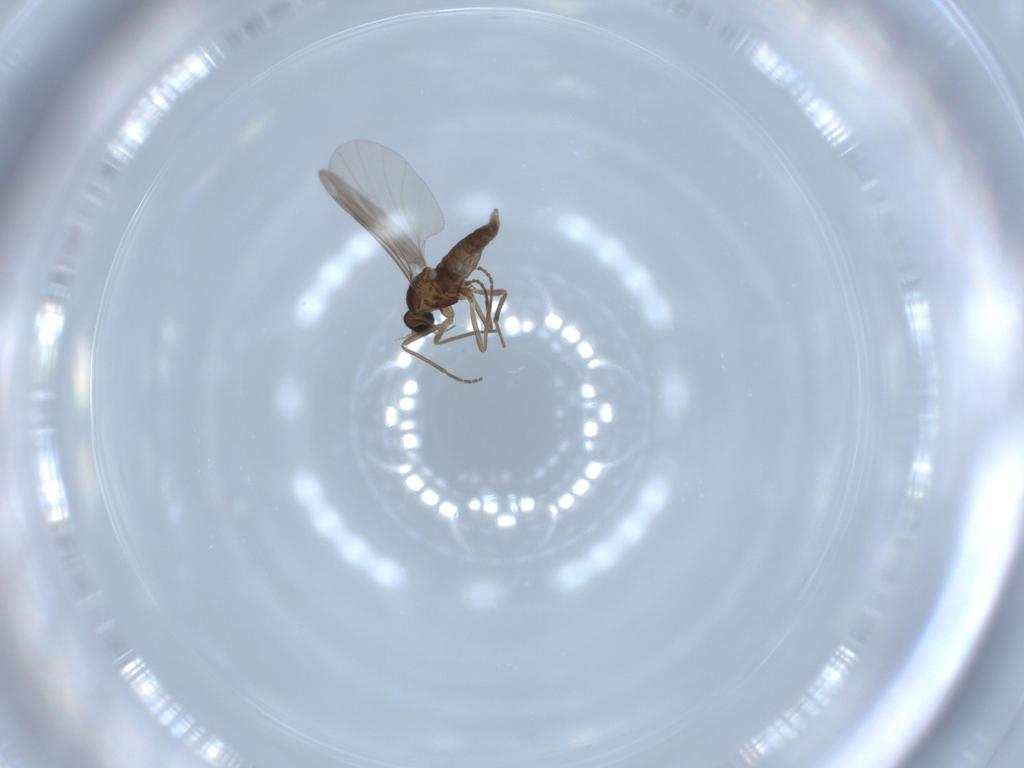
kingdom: Animalia
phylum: Arthropoda
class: Insecta
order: Diptera
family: Cecidomyiidae
